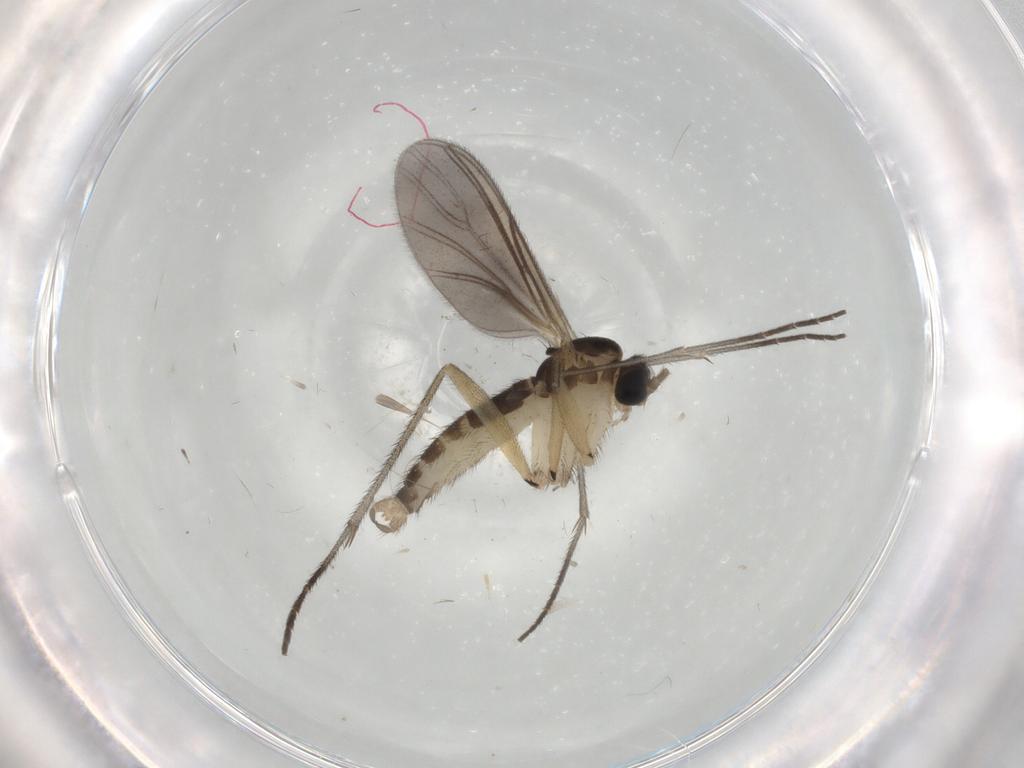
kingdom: Animalia
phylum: Arthropoda
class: Insecta
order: Diptera
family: Sciaridae
